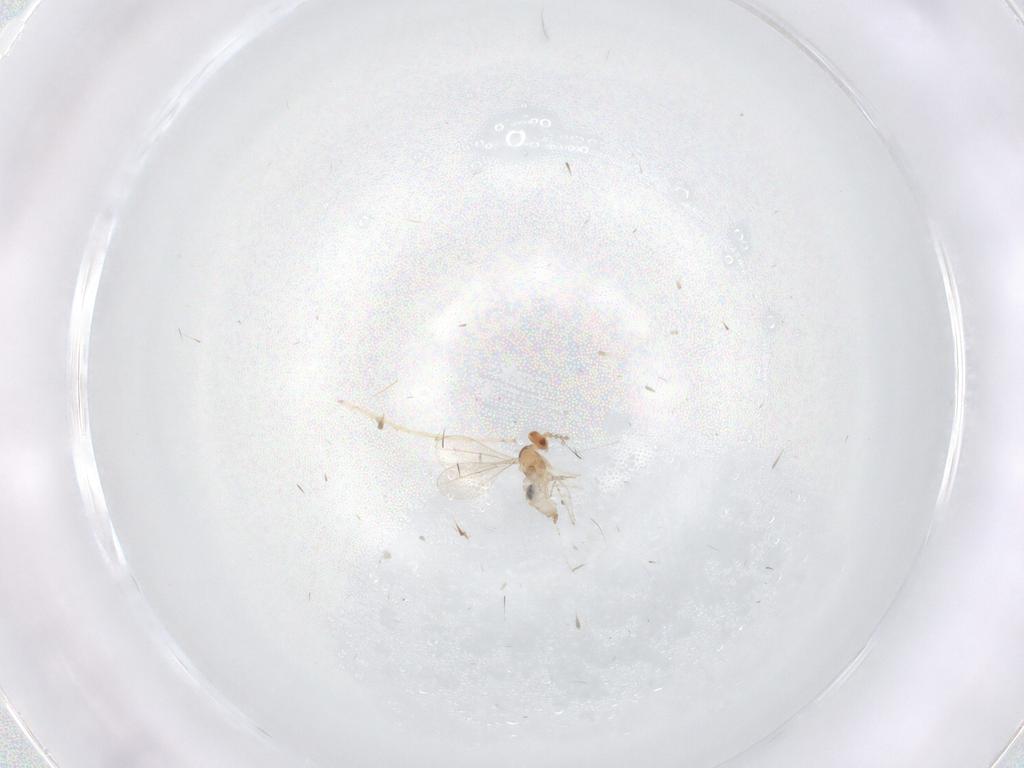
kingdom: Animalia
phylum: Arthropoda
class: Insecta
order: Diptera
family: Chironomidae
